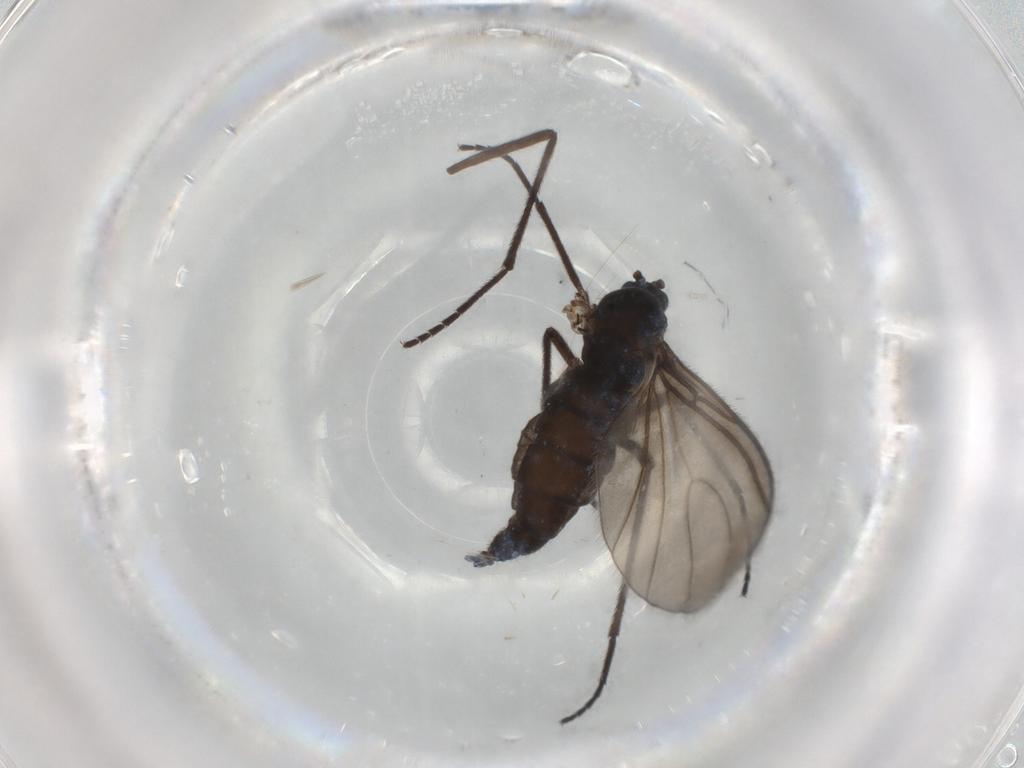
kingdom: Animalia
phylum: Arthropoda
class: Insecta
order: Diptera
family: Sciaridae
